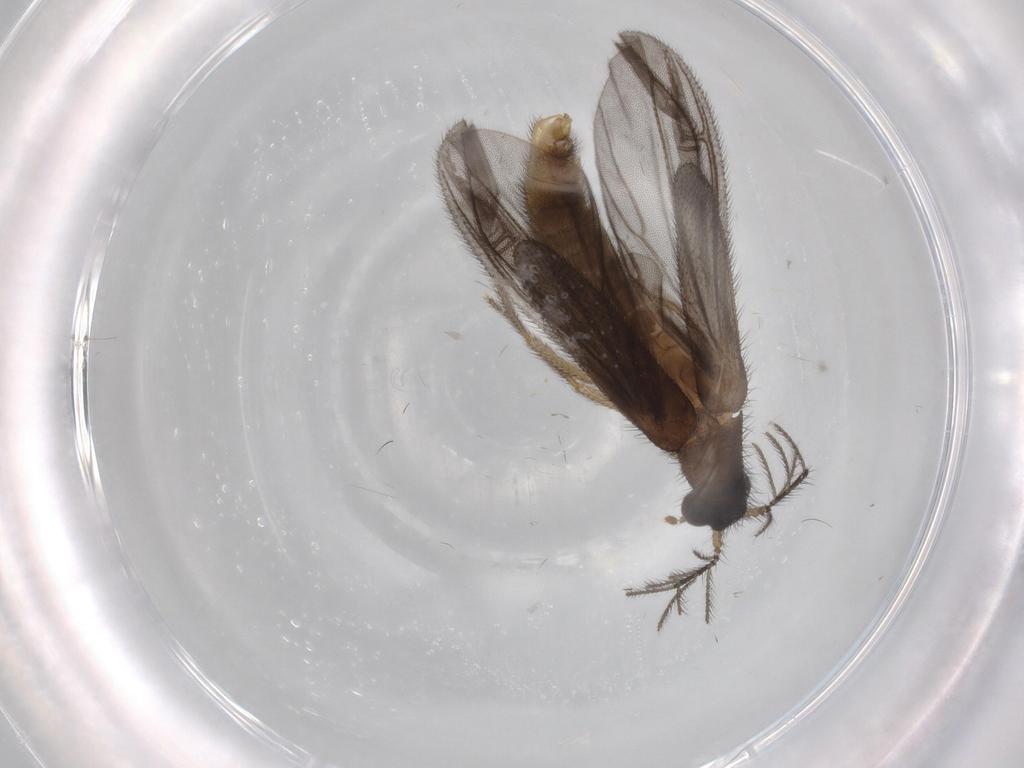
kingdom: Animalia
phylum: Arthropoda
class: Insecta
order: Coleoptera
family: Phengodidae
